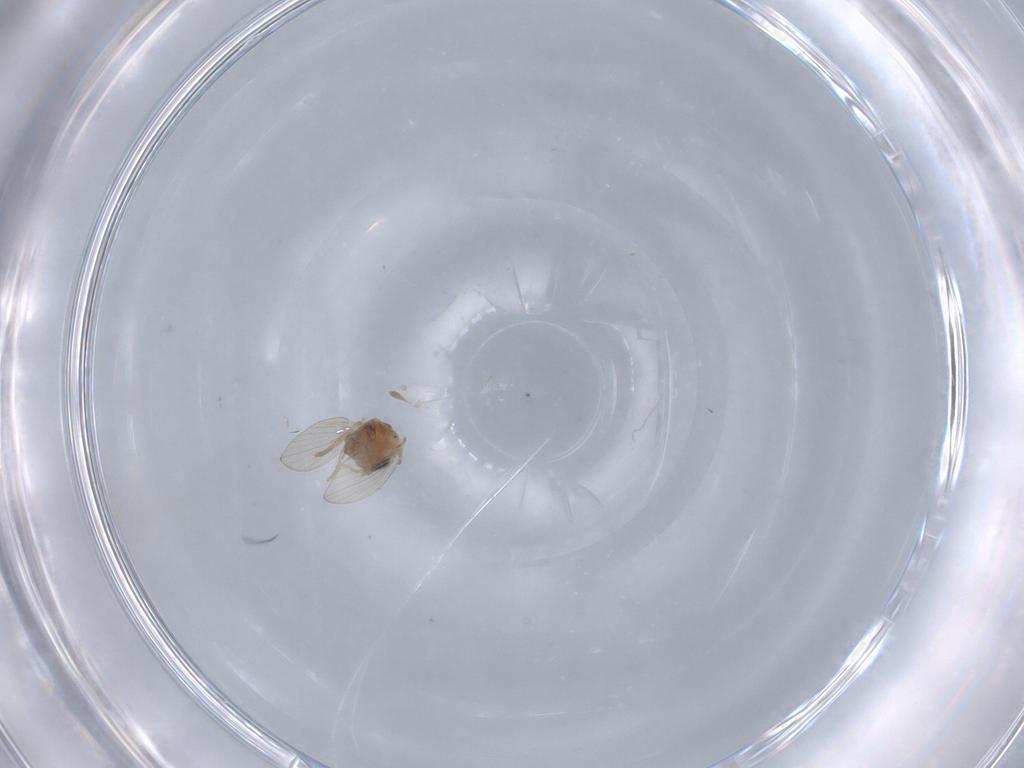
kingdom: Animalia
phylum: Arthropoda
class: Insecta
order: Diptera
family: Psychodidae
